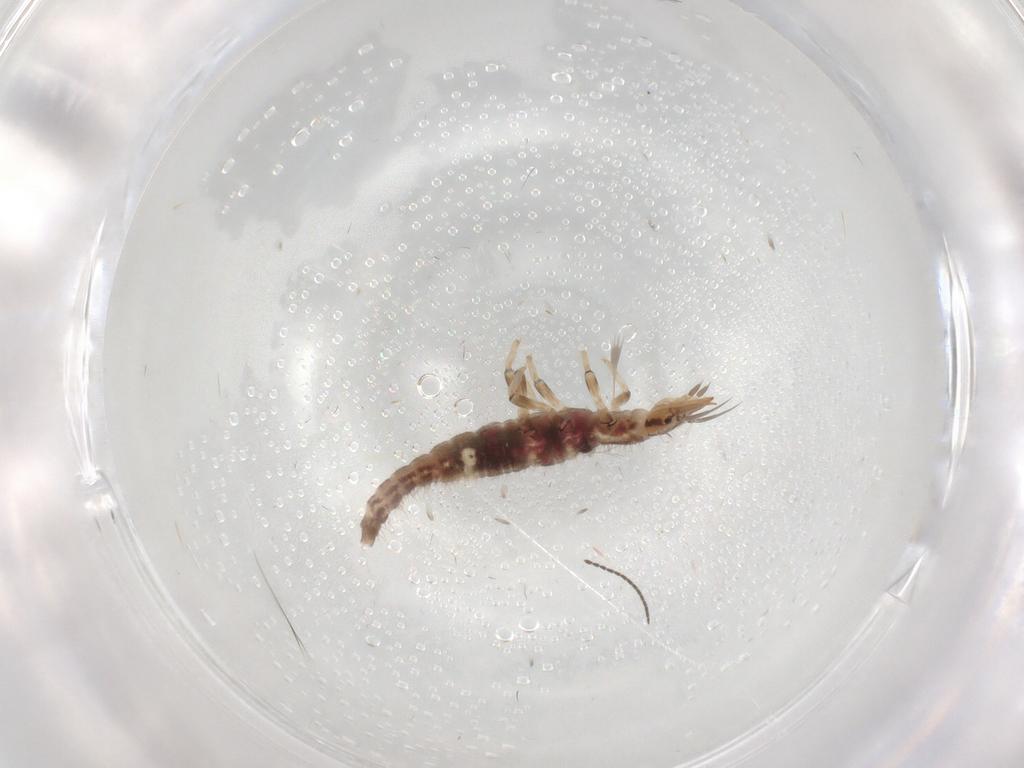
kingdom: Animalia
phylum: Arthropoda
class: Insecta
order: Neuroptera
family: Hemerobiidae
